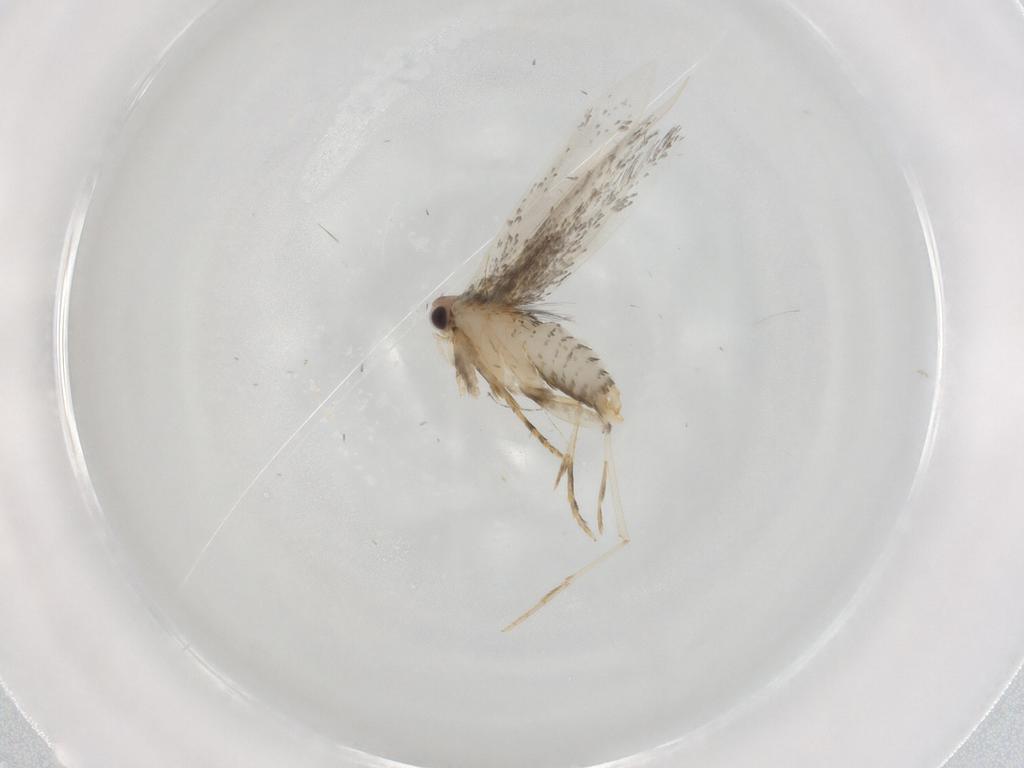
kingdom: Animalia
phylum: Arthropoda
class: Insecta
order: Lepidoptera
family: Tineidae
